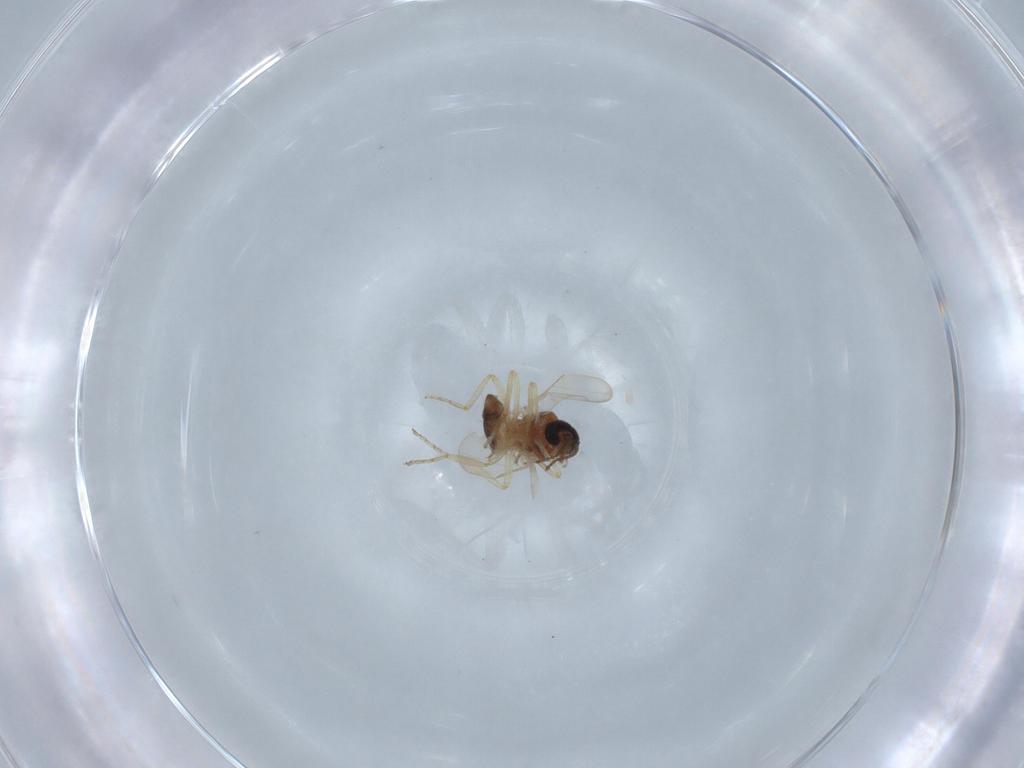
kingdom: Animalia
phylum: Arthropoda
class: Insecta
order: Diptera
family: Ceratopogonidae
